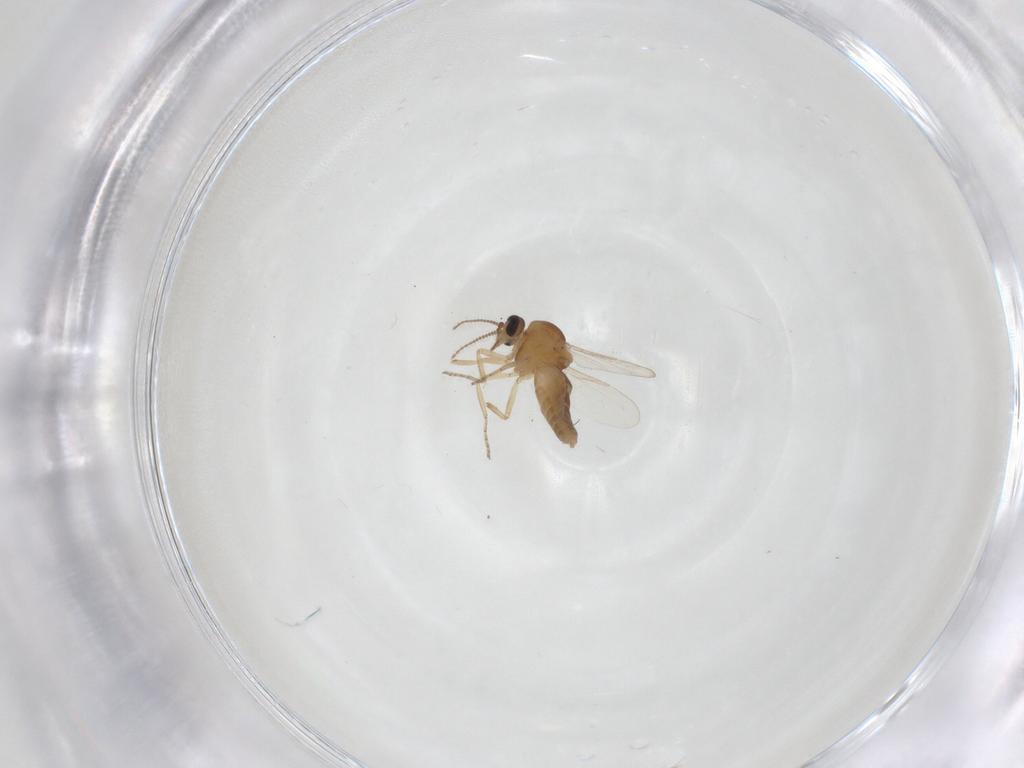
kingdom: Animalia
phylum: Arthropoda
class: Insecta
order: Diptera
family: Ceratopogonidae
